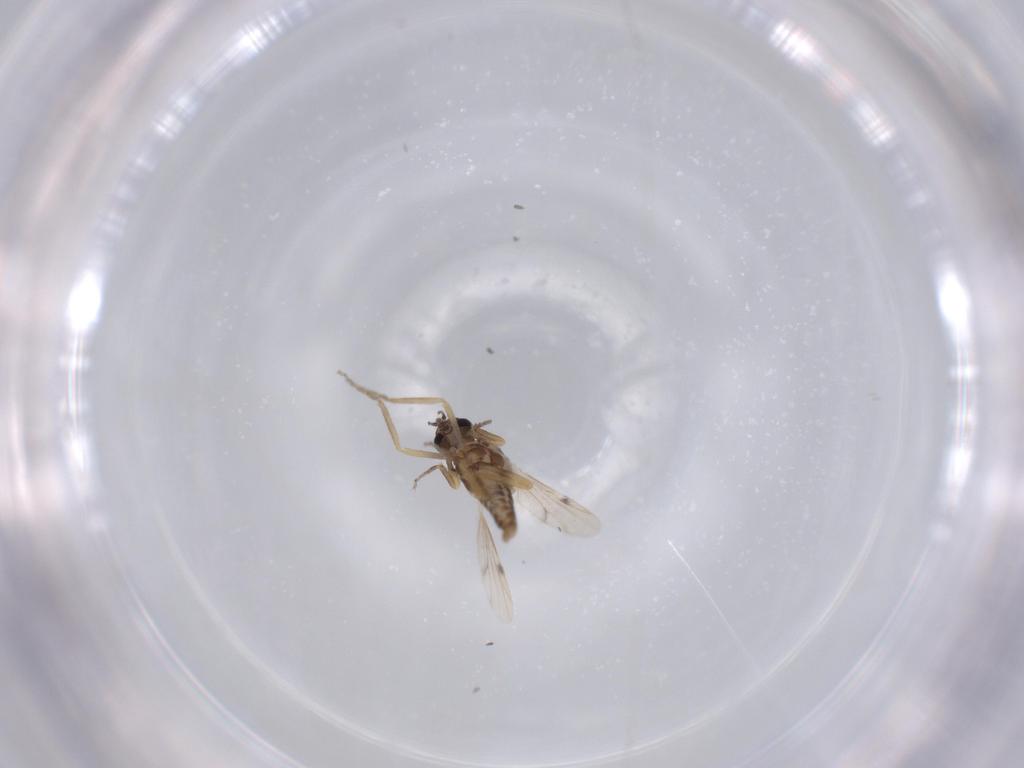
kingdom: Animalia
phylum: Arthropoda
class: Insecta
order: Diptera
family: Ceratopogonidae
